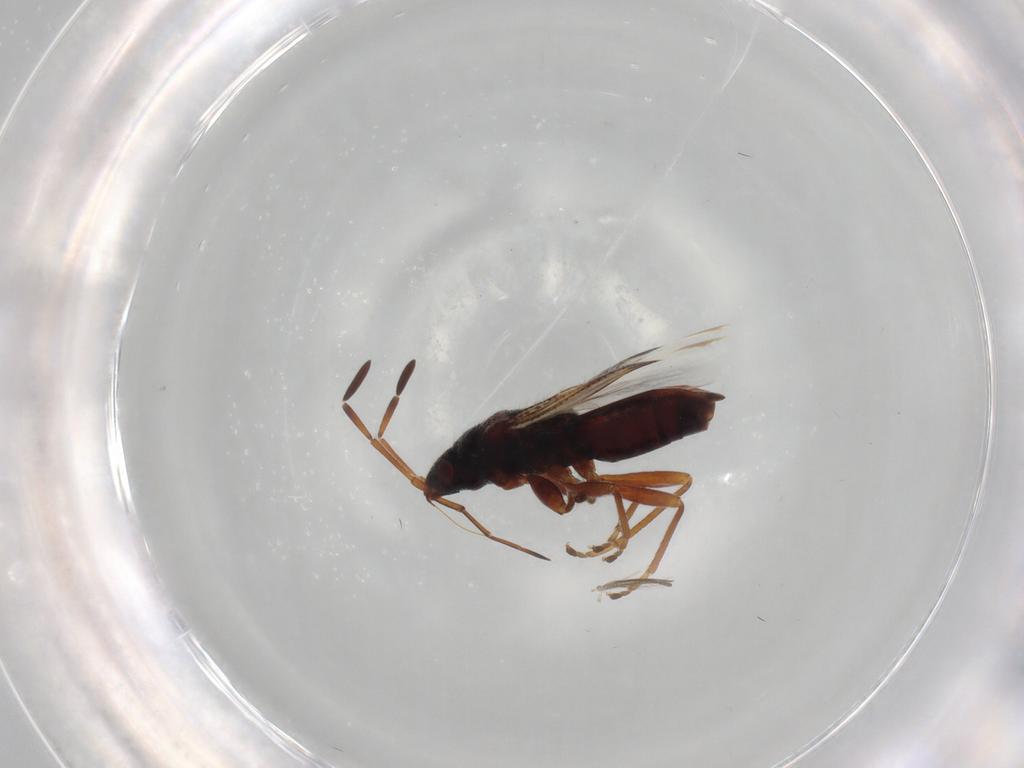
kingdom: Animalia
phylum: Arthropoda
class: Insecta
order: Hemiptera
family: Rhyparochromidae
